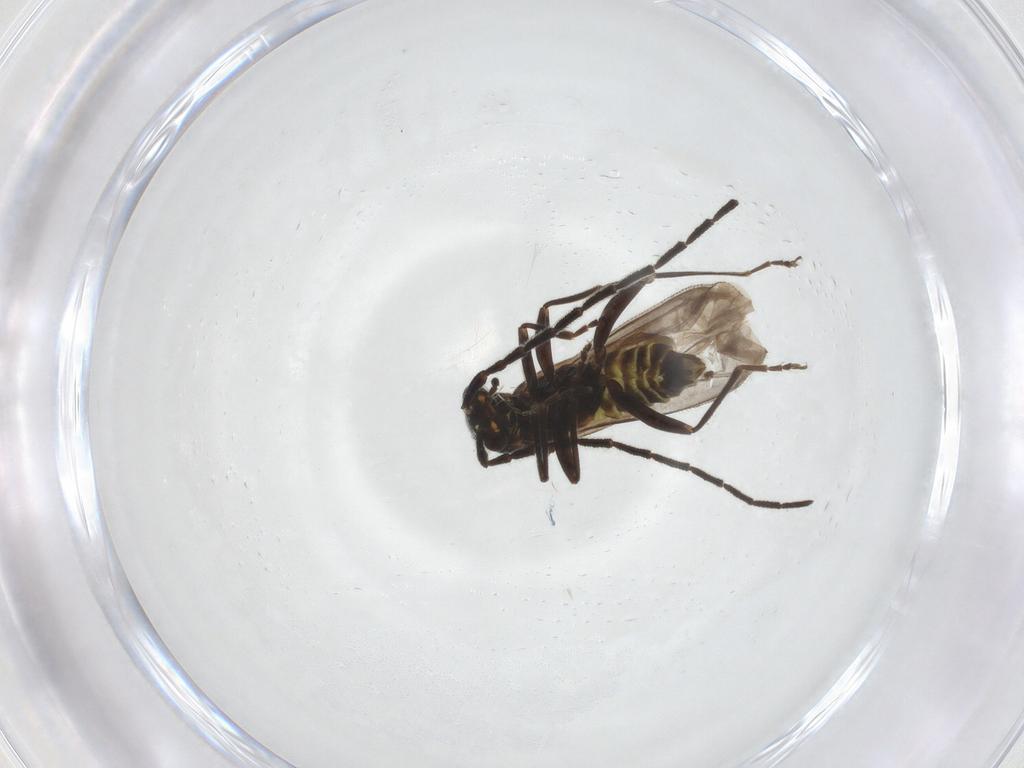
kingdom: Animalia
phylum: Arthropoda
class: Insecta
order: Coleoptera
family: Cantharidae
